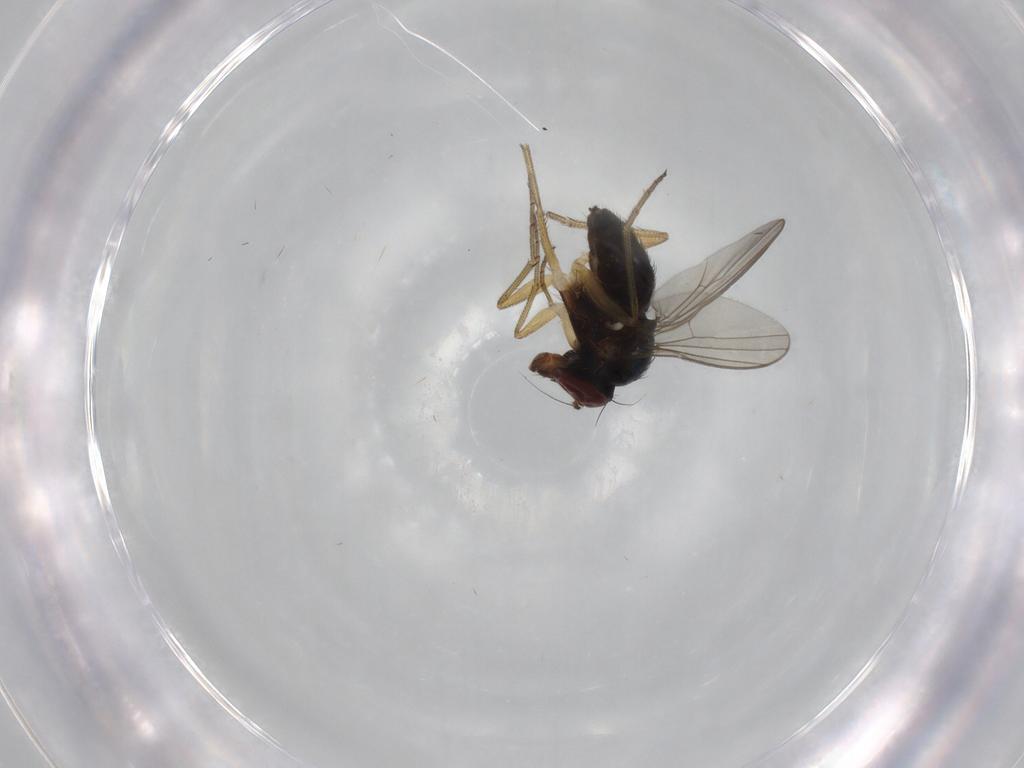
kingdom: Animalia
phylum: Arthropoda
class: Insecta
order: Diptera
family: Dolichopodidae
